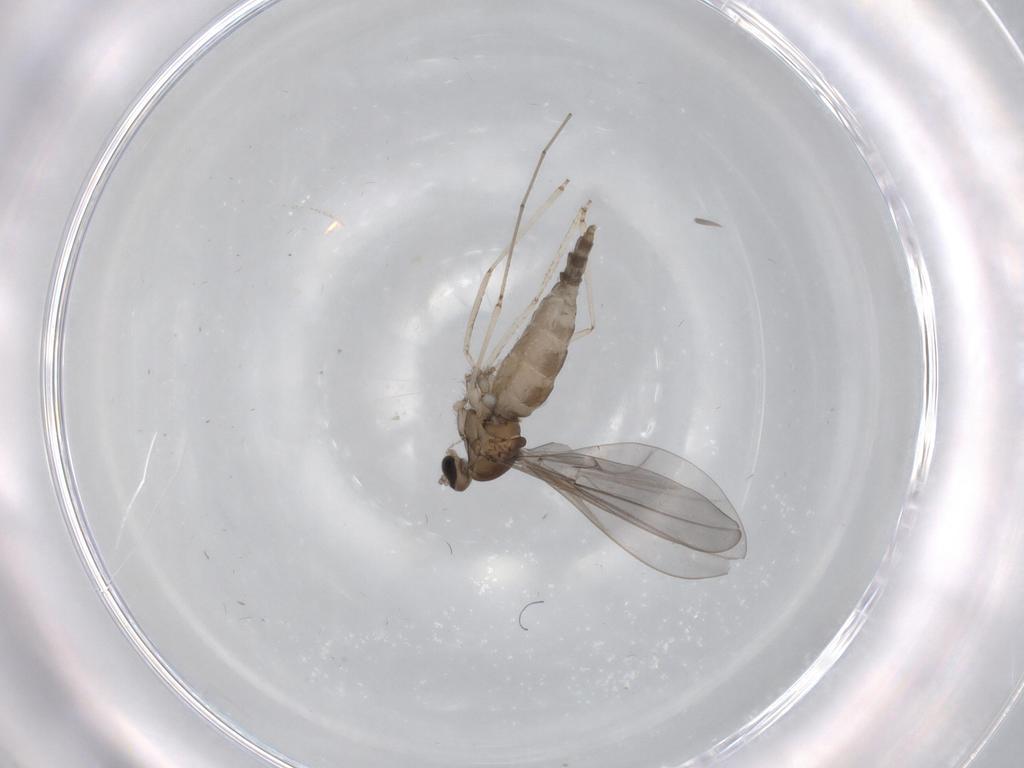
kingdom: Animalia
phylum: Arthropoda
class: Insecta
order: Diptera
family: Cecidomyiidae
